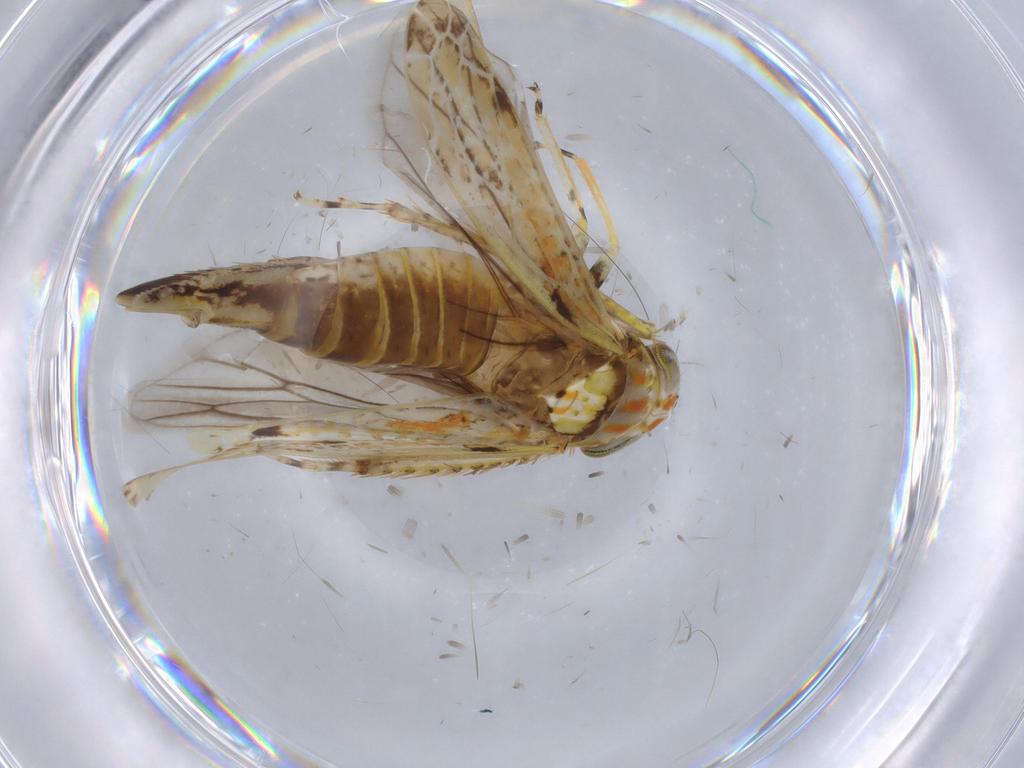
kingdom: Animalia
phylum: Arthropoda
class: Insecta
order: Hemiptera
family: Cicadellidae
